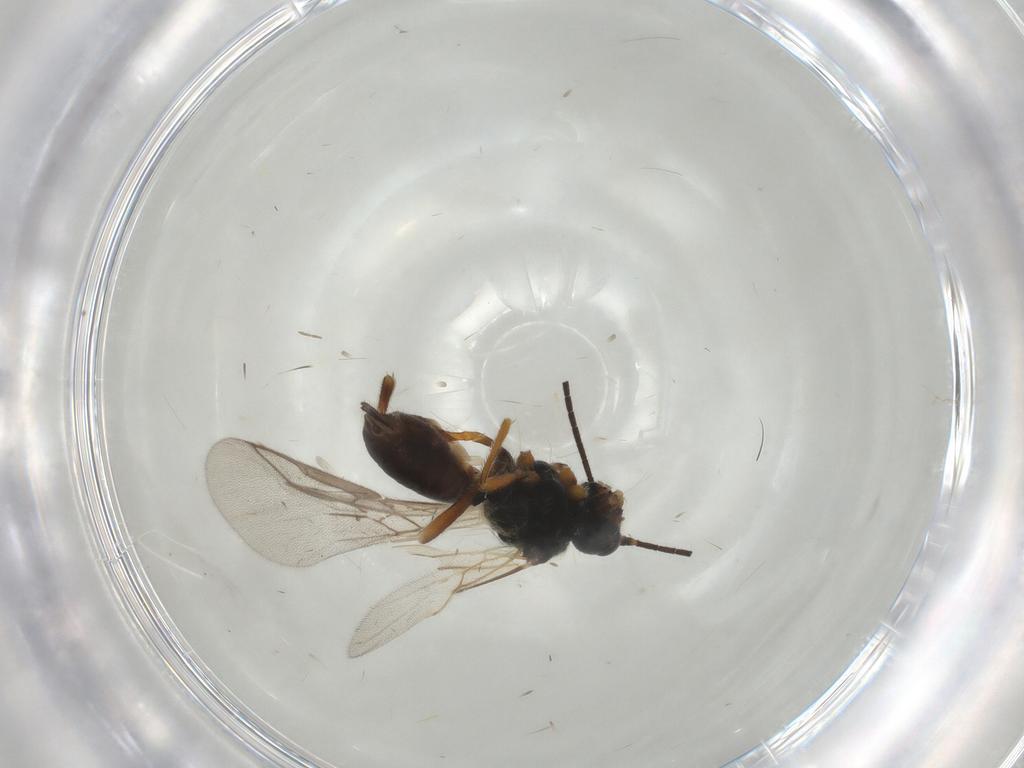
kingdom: Animalia
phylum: Arthropoda
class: Insecta
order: Hymenoptera
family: Braconidae
